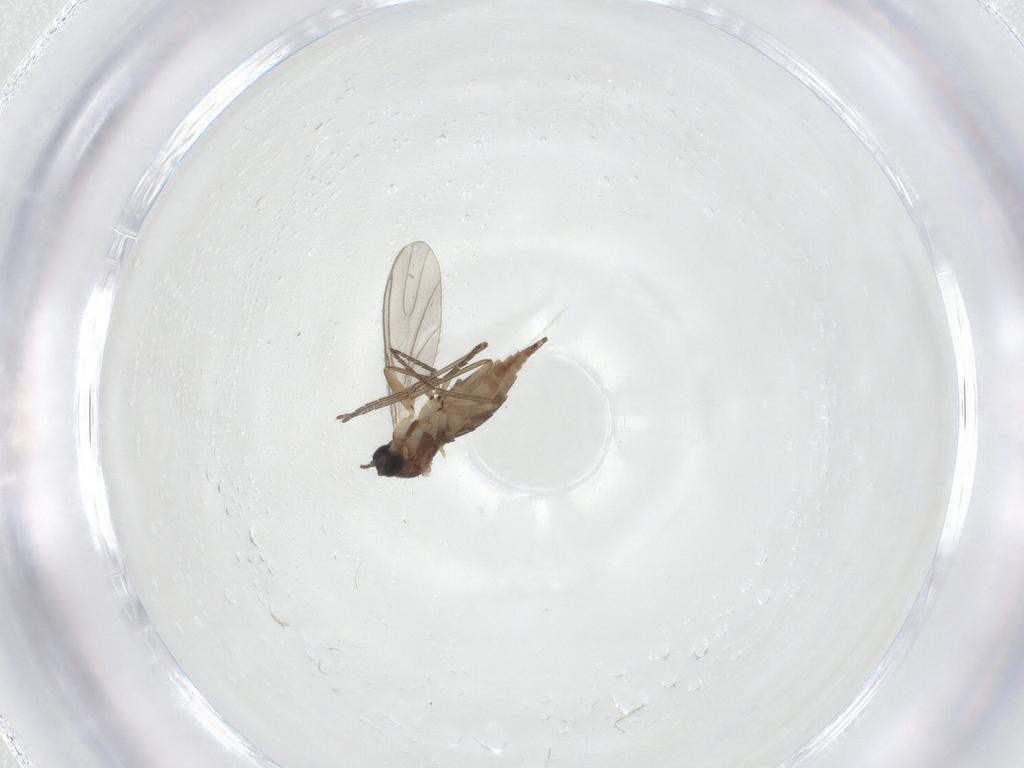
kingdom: Animalia
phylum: Arthropoda
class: Insecta
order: Diptera
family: Sciaridae
